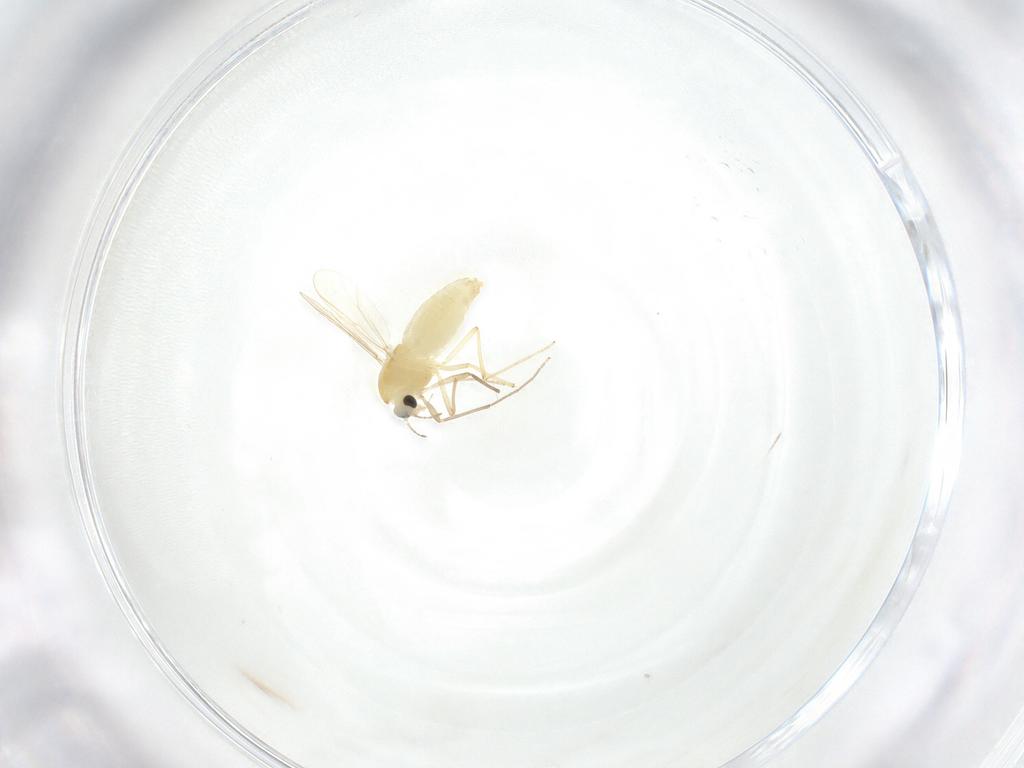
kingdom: Animalia
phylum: Arthropoda
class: Insecta
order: Diptera
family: Chironomidae
